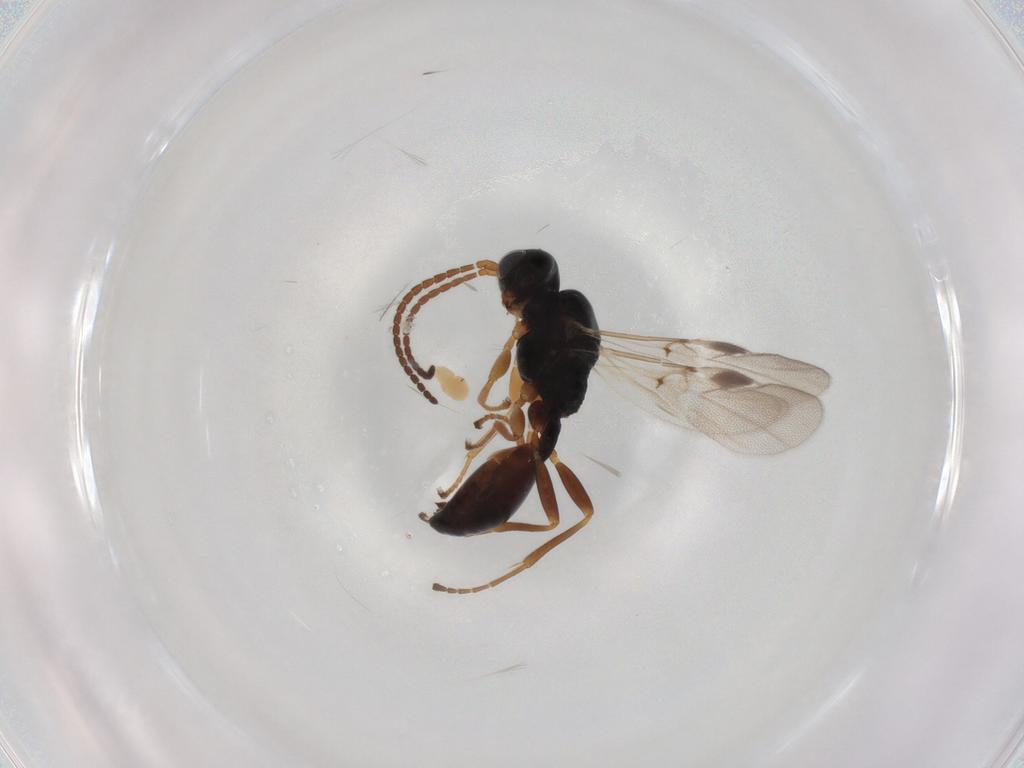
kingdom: Animalia
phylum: Arthropoda
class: Insecta
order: Hymenoptera
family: Braconidae
